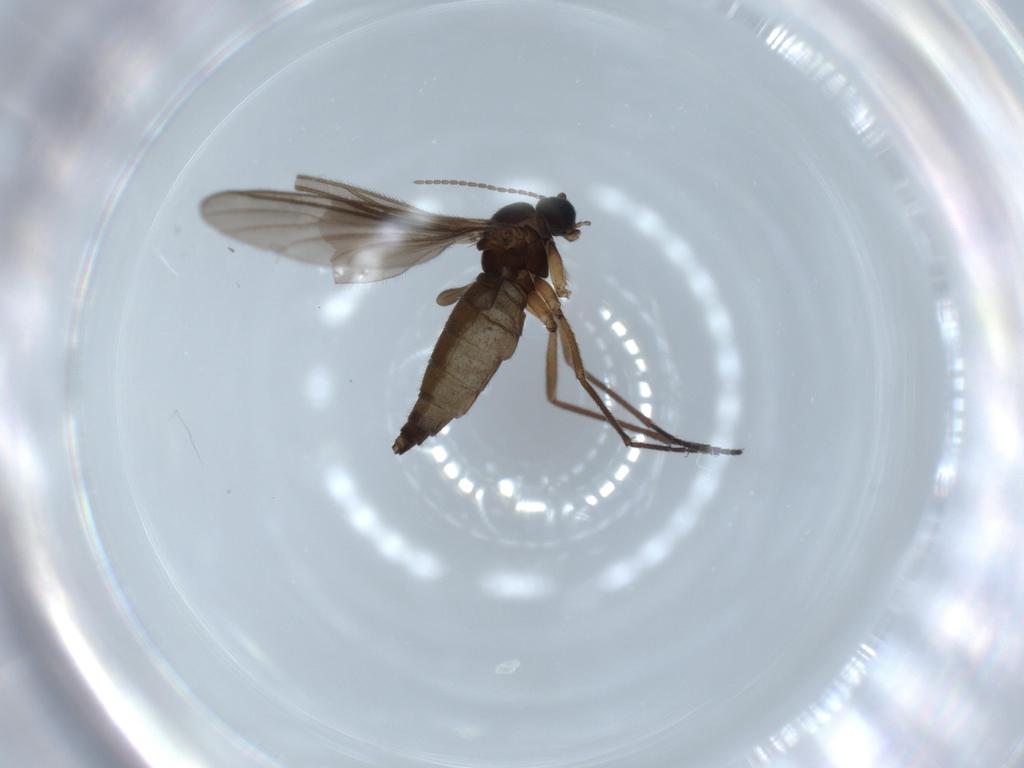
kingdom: Animalia
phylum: Arthropoda
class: Insecta
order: Diptera
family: Sciaridae
